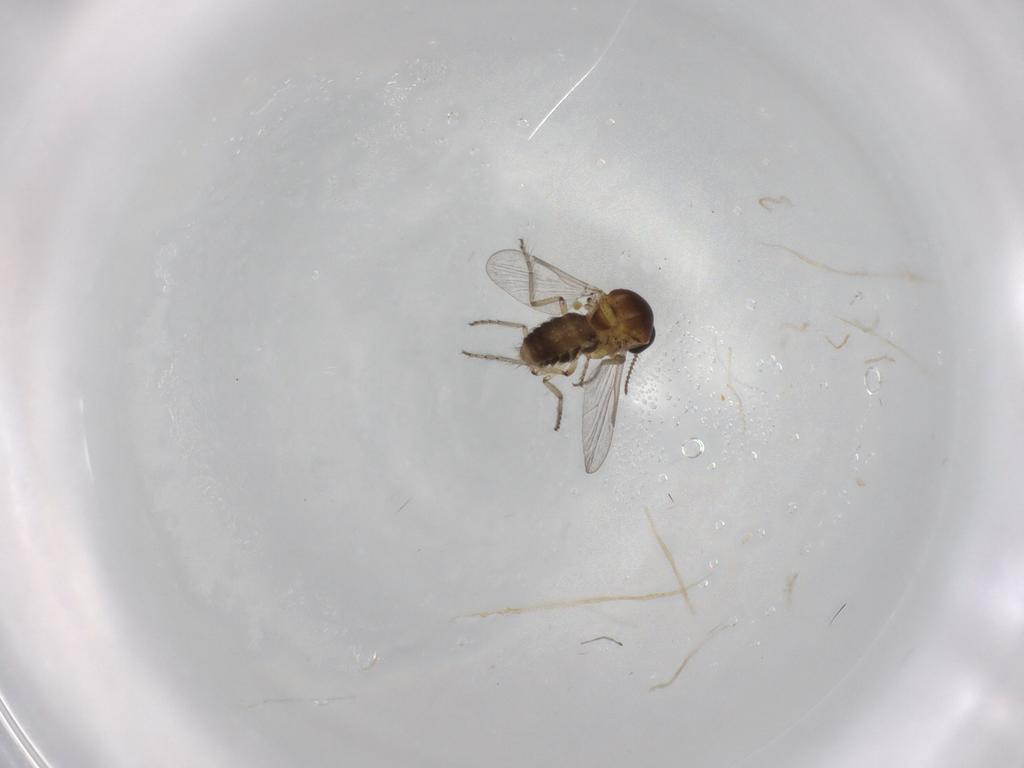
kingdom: Animalia
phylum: Arthropoda
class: Insecta
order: Diptera
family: Ceratopogonidae
